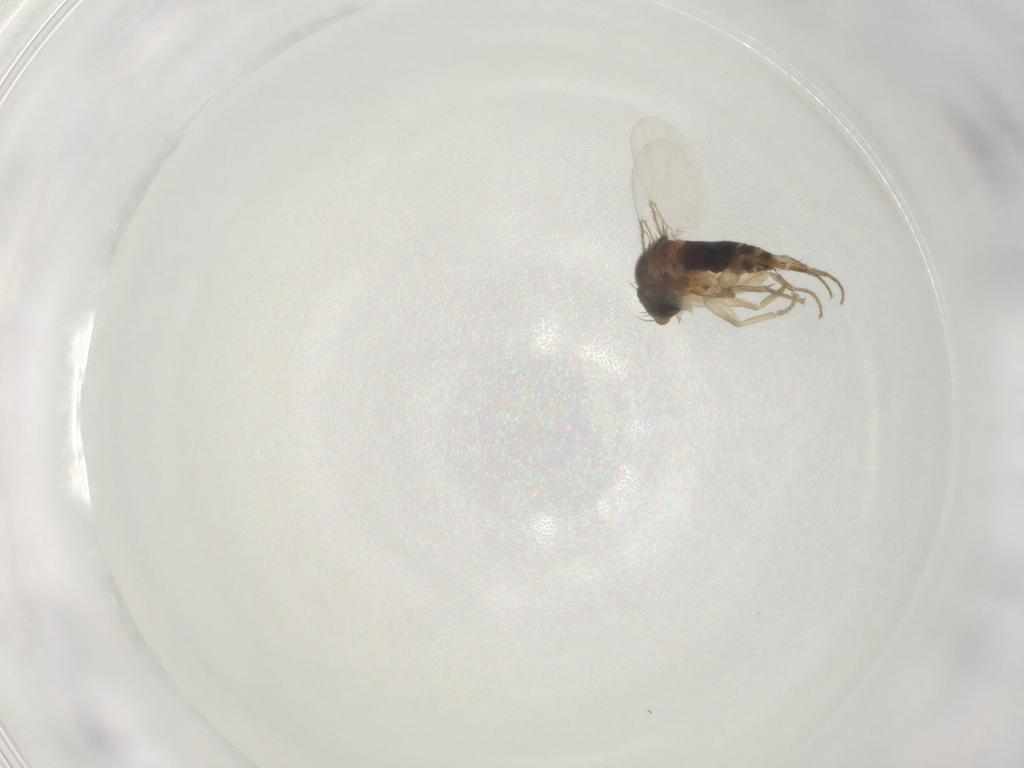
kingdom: Animalia
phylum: Arthropoda
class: Insecta
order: Diptera
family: Phoridae
